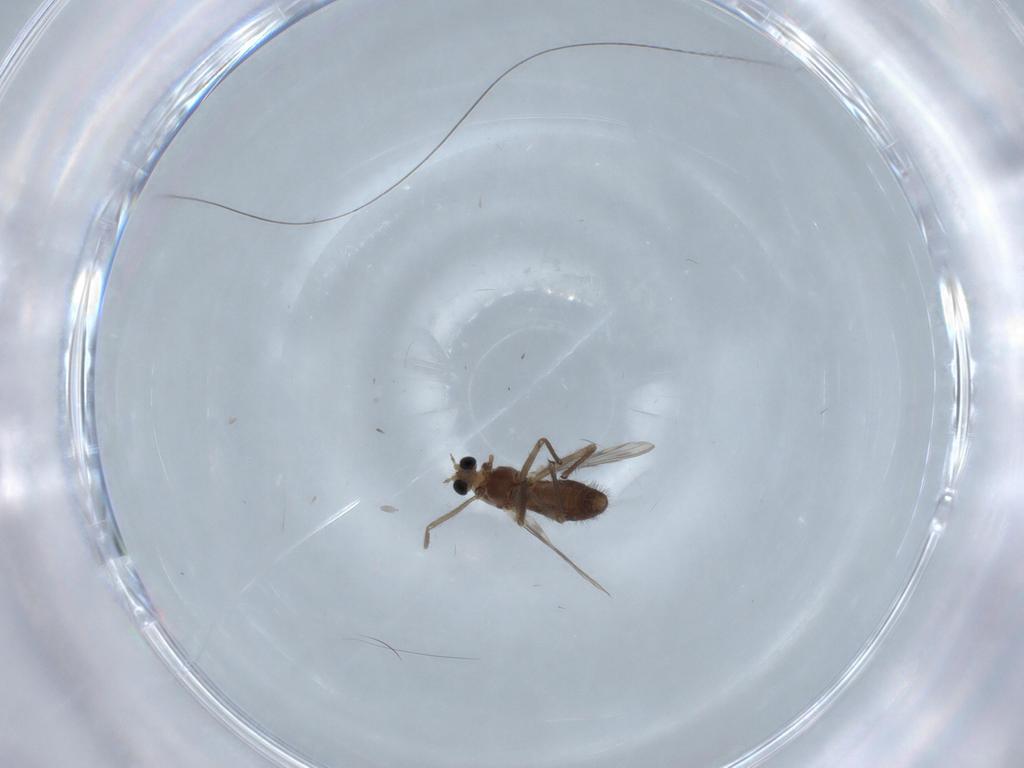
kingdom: Animalia
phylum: Arthropoda
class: Insecta
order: Diptera
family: Chironomidae
